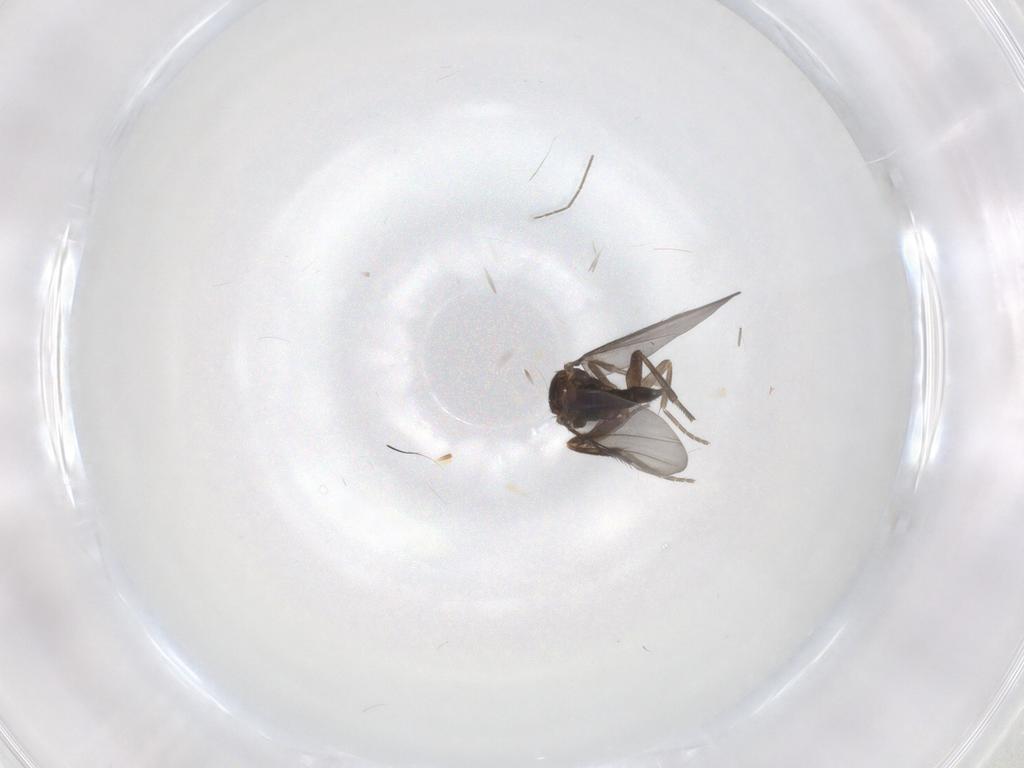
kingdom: Animalia
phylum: Arthropoda
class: Insecta
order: Diptera
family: Phoridae
